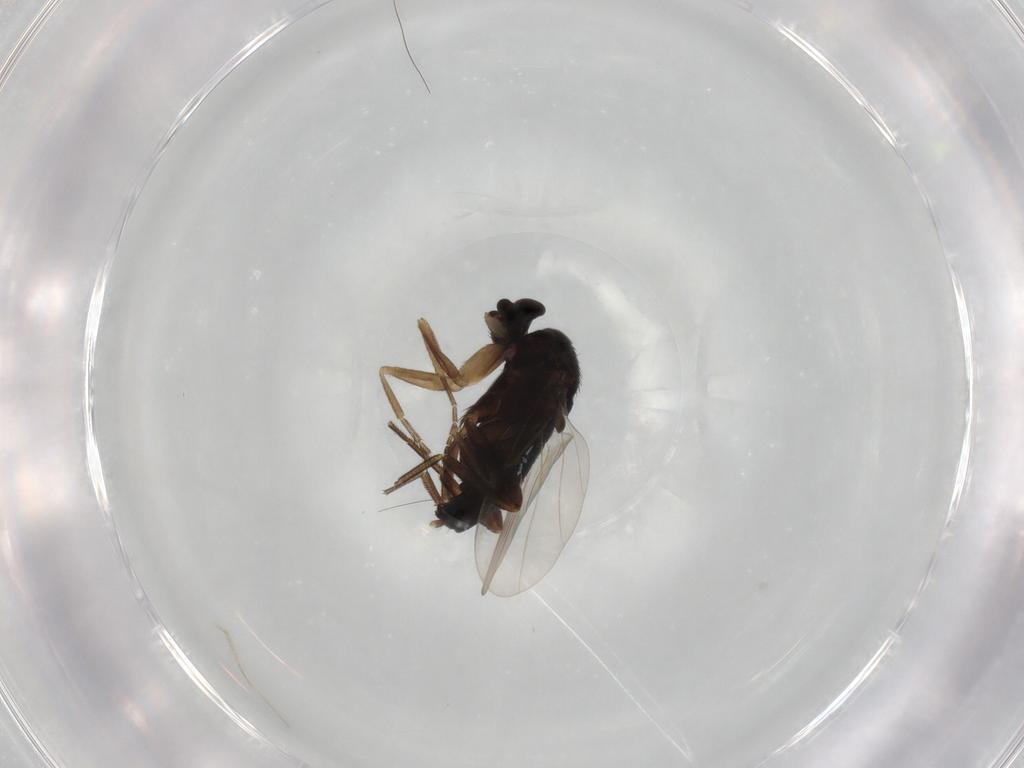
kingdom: Animalia
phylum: Arthropoda
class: Insecta
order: Diptera
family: Phoridae
